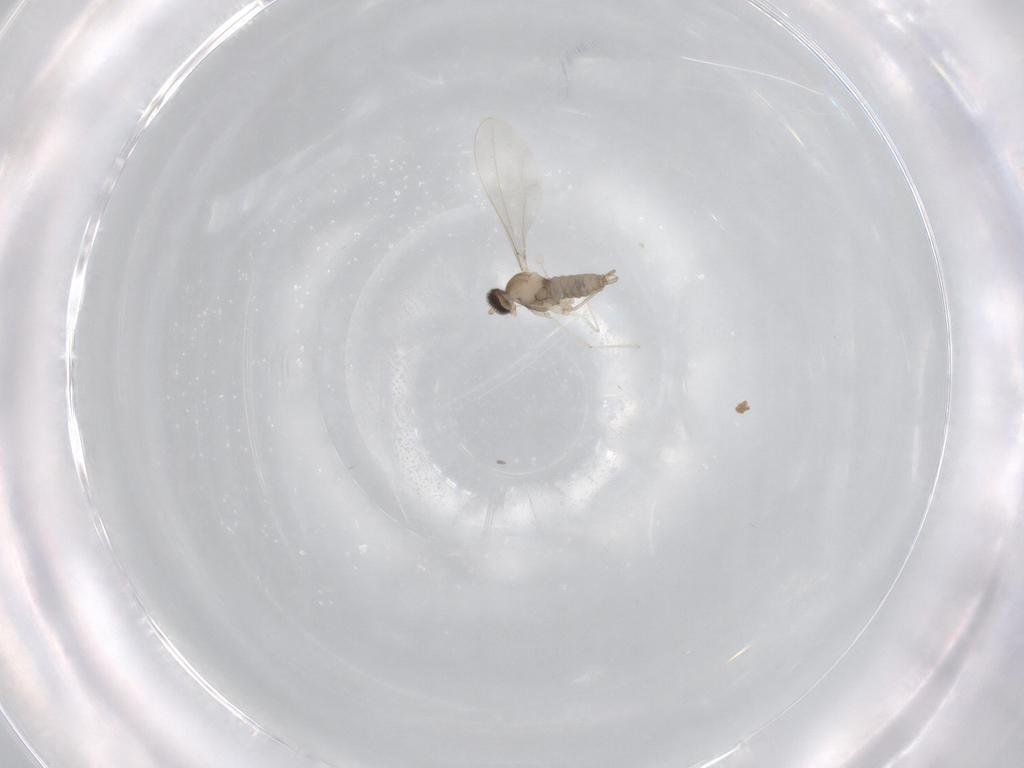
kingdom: Animalia
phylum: Arthropoda
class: Insecta
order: Diptera
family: Cecidomyiidae
